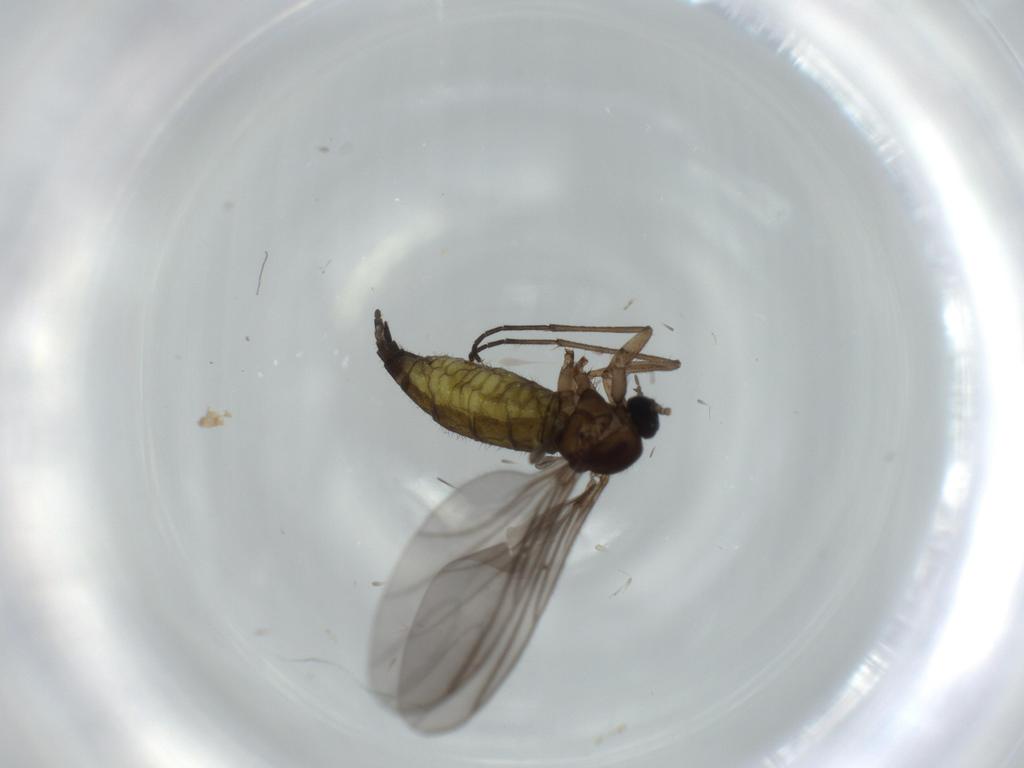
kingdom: Animalia
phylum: Arthropoda
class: Insecta
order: Diptera
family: Sciaridae
